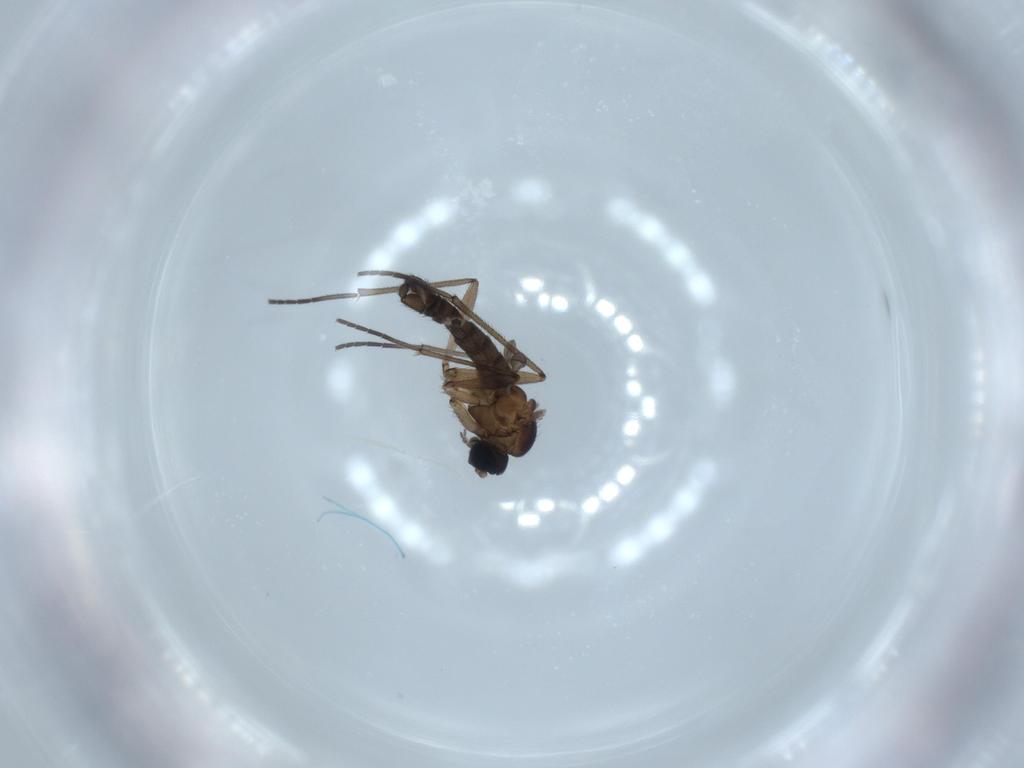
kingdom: Animalia
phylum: Arthropoda
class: Insecta
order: Diptera
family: Sciaridae
